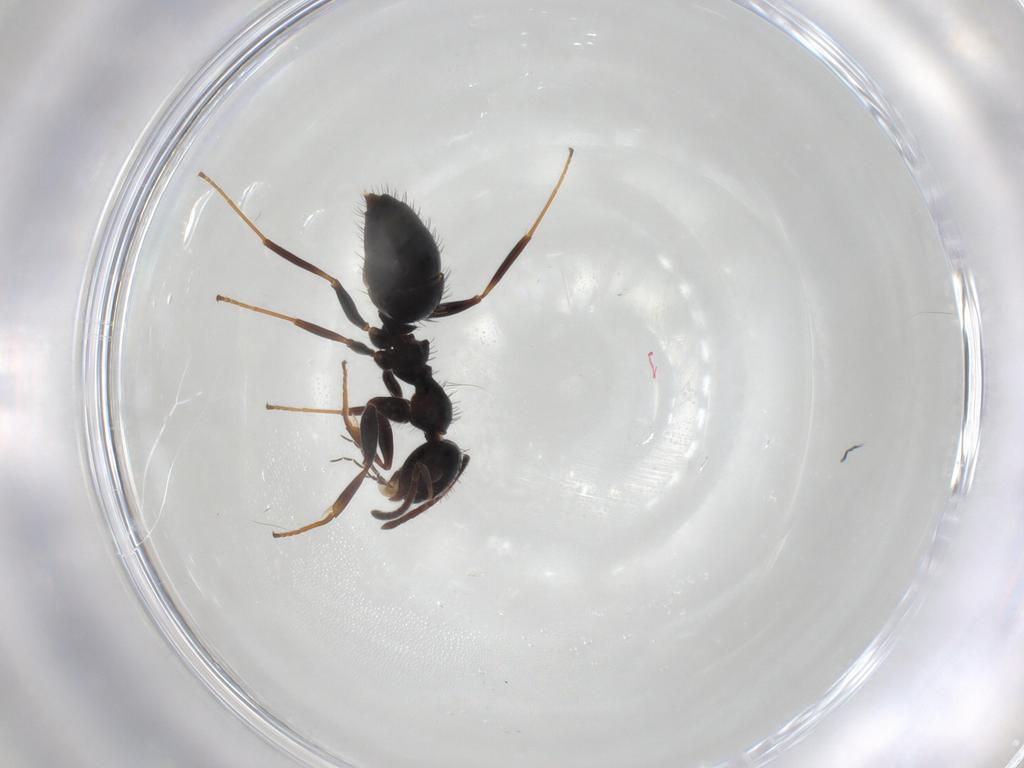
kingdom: Animalia
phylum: Arthropoda
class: Insecta
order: Hymenoptera
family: Formicidae
